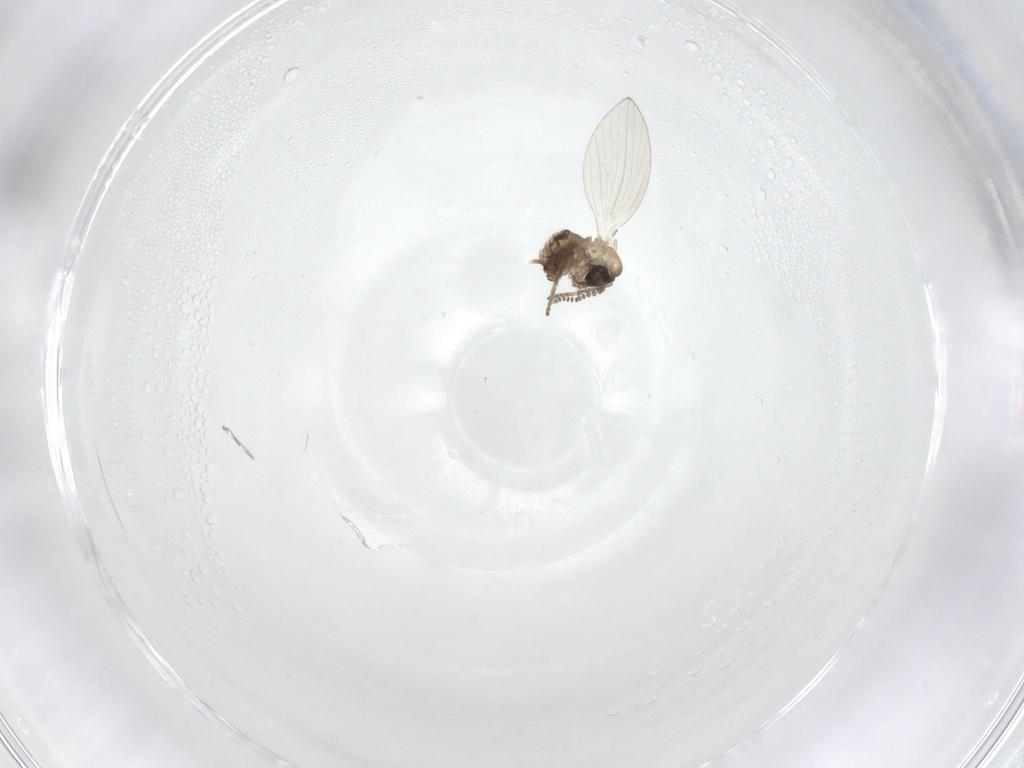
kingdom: Animalia
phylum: Arthropoda
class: Insecta
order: Diptera
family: Psychodidae
